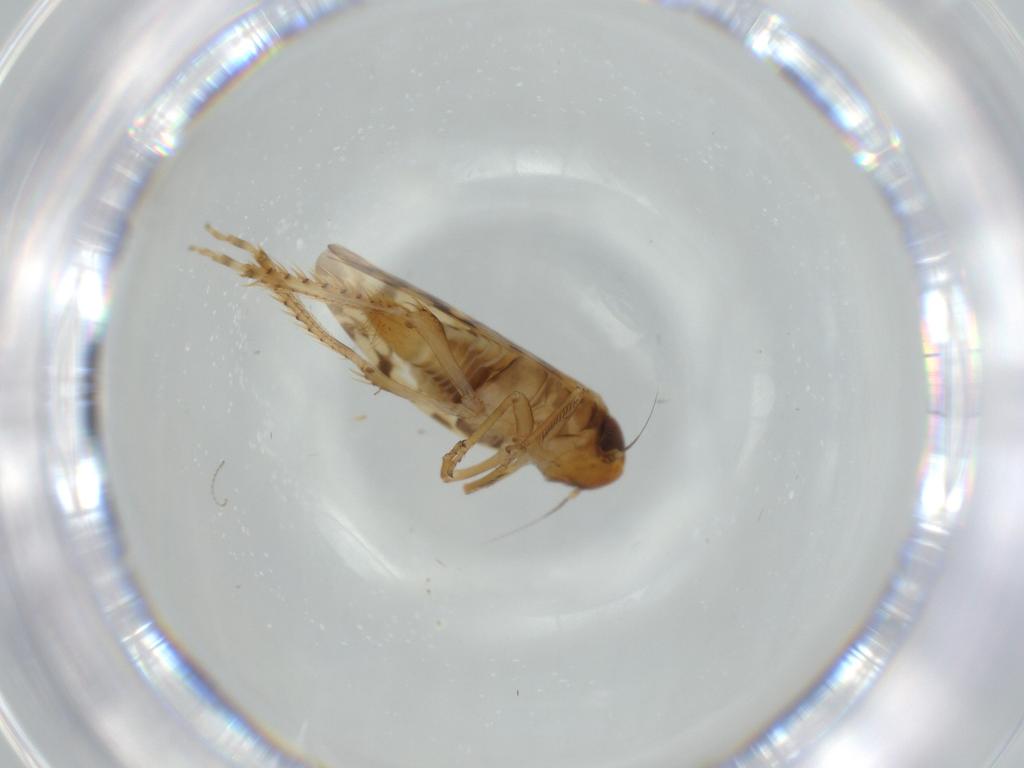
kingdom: Animalia
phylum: Arthropoda
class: Insecta
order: Hemiptera
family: Cicadellidae
